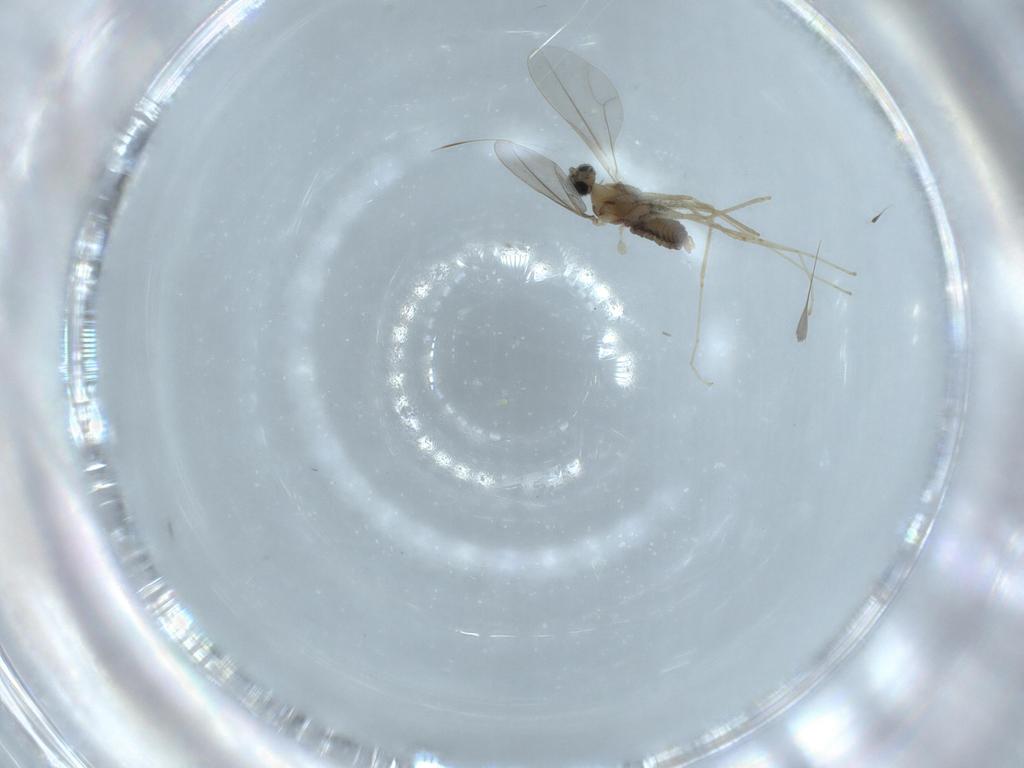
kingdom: Animalia
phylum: Arthropoda
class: Insecta
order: Diptera
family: Cecidomyiidae
